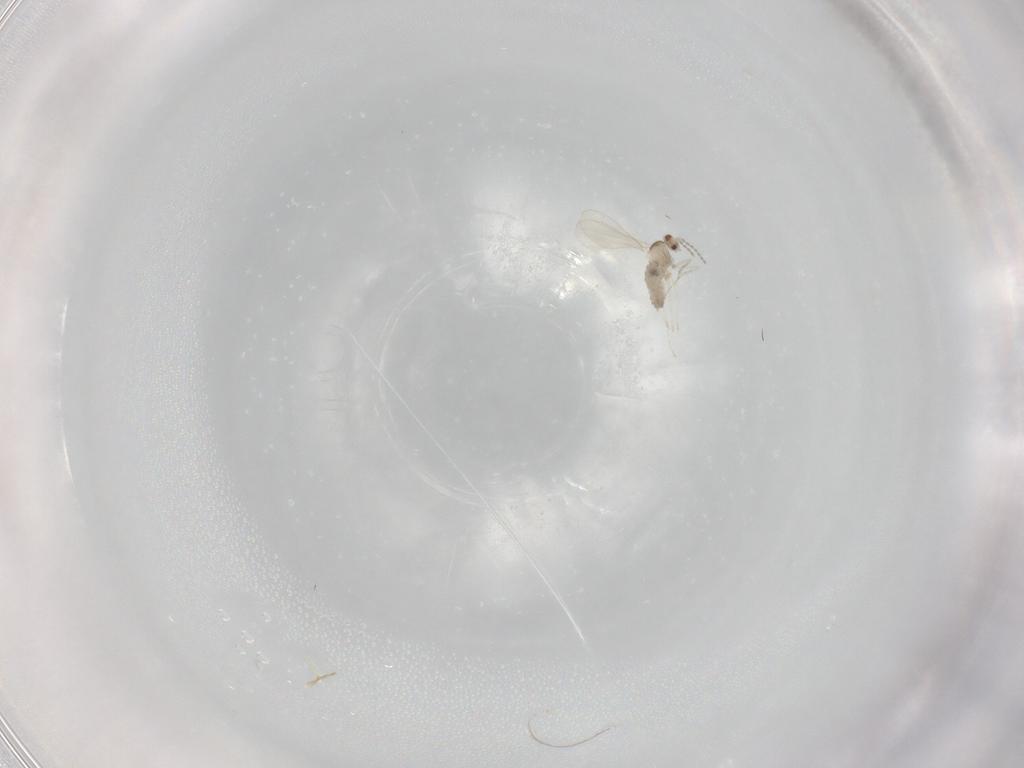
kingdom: Animalia
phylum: Arthropoda
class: Insecta
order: Diptera
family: Cecidomyiidae
